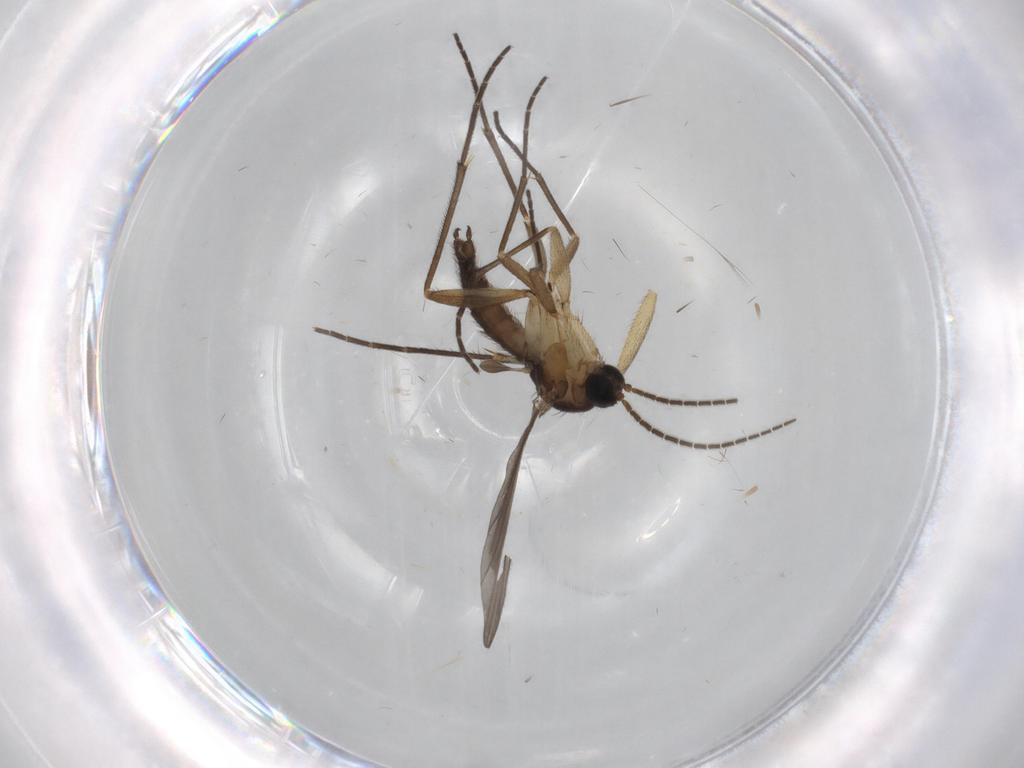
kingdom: Animalia
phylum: Arthropoda
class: Insecta
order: Diptera
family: Sciaridae
